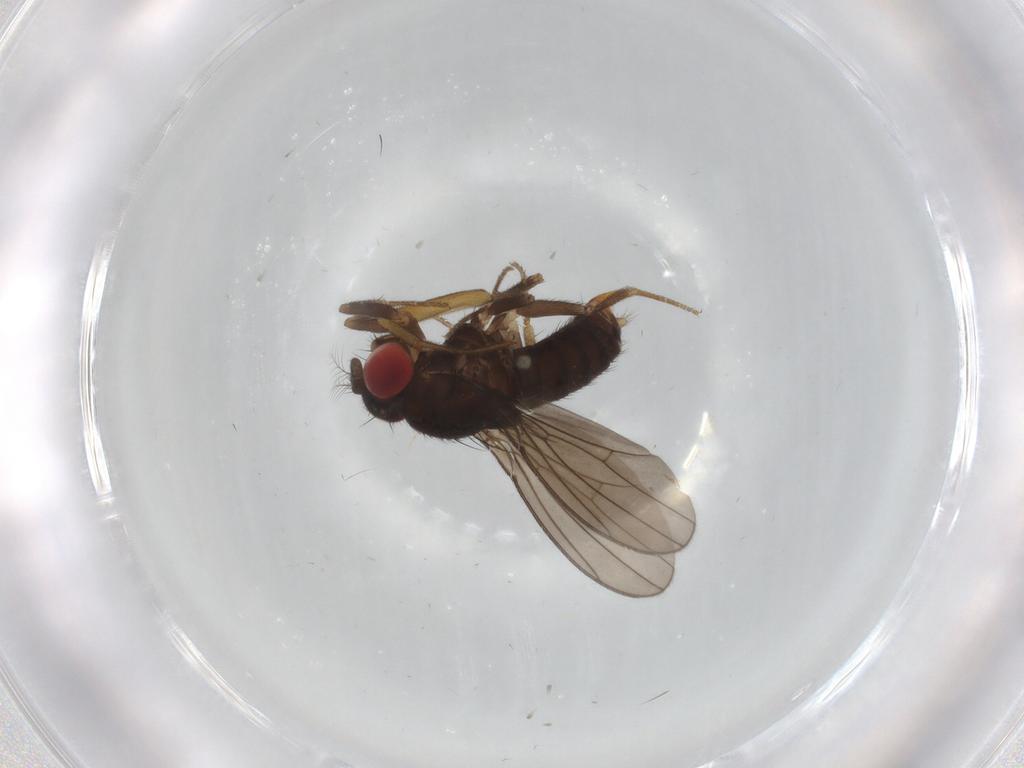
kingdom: Animalia
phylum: Arthropoda
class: Insecta
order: Diptera
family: Drosophilidae
